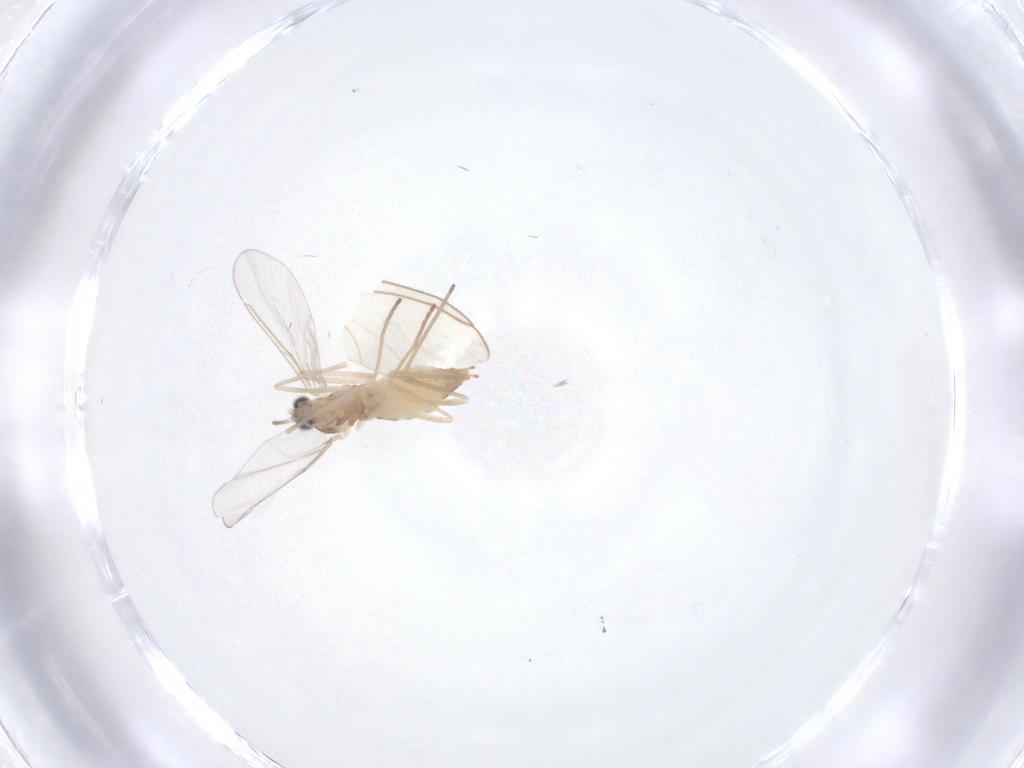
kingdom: Animalia
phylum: Arthropoda
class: Insecta
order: Diptera
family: Cecidomyiidae
